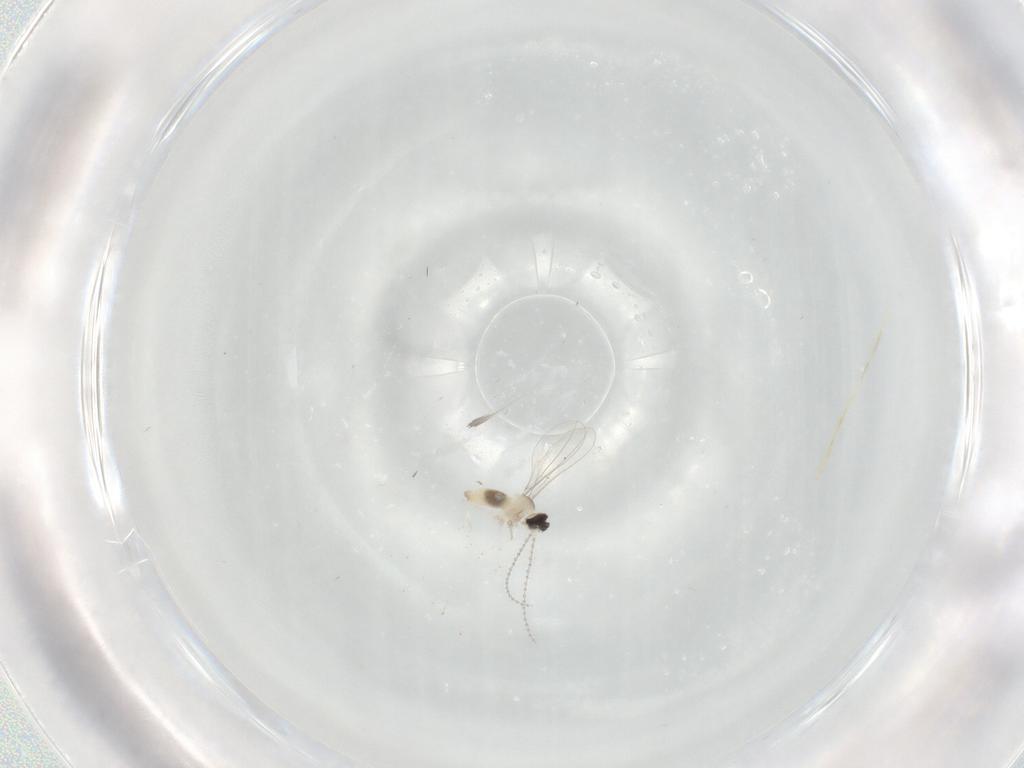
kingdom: Animalia
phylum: Arthropoda
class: Insecta
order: Diptera
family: Cecidomyiidae
